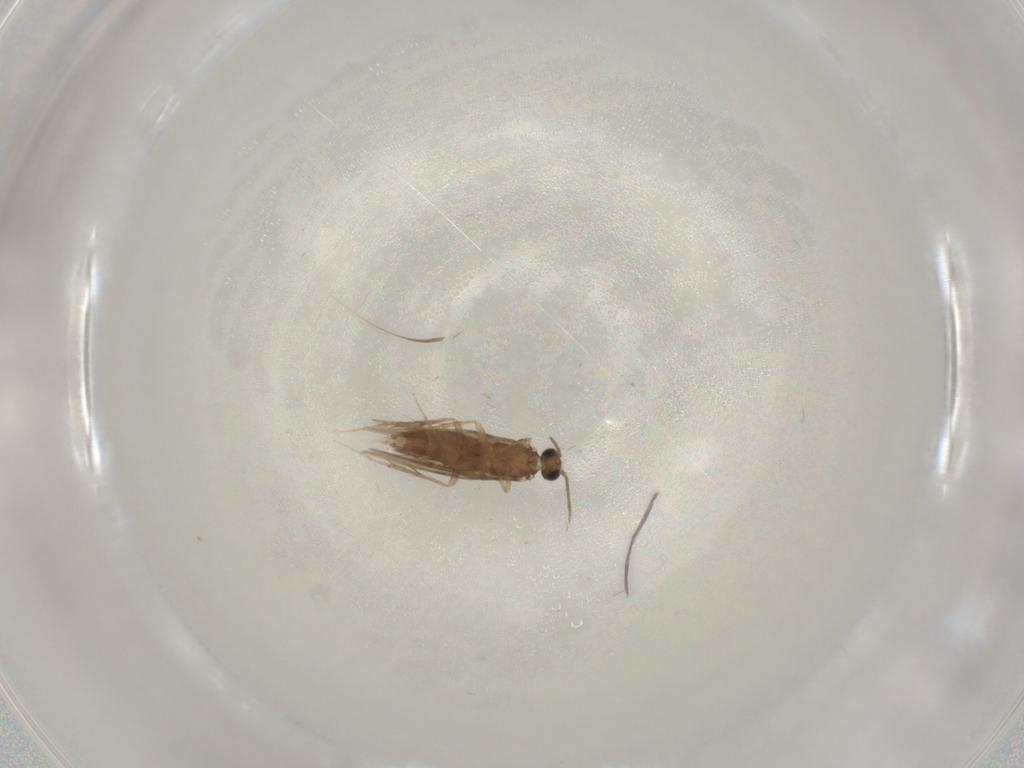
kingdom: Animalia
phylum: Arthropoda
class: Insecta
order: Trichoptera
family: Hydroptilidae
